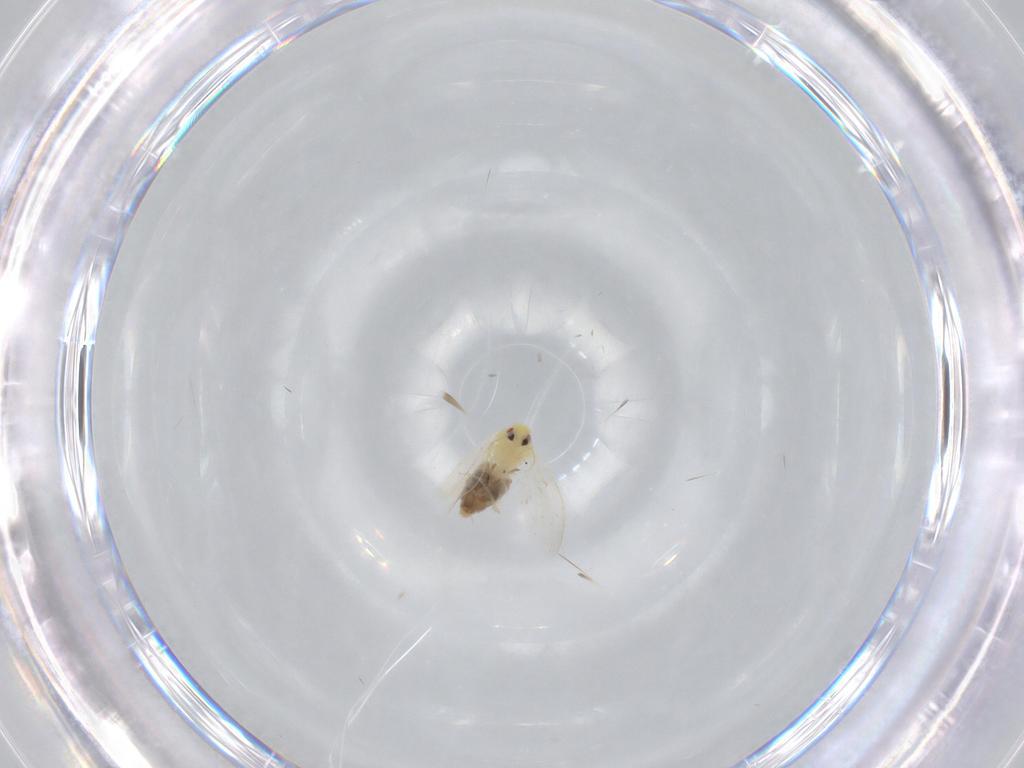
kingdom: Animalia
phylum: Arthropoda
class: Insecta
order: Hemiptera
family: Aleyrodidae
